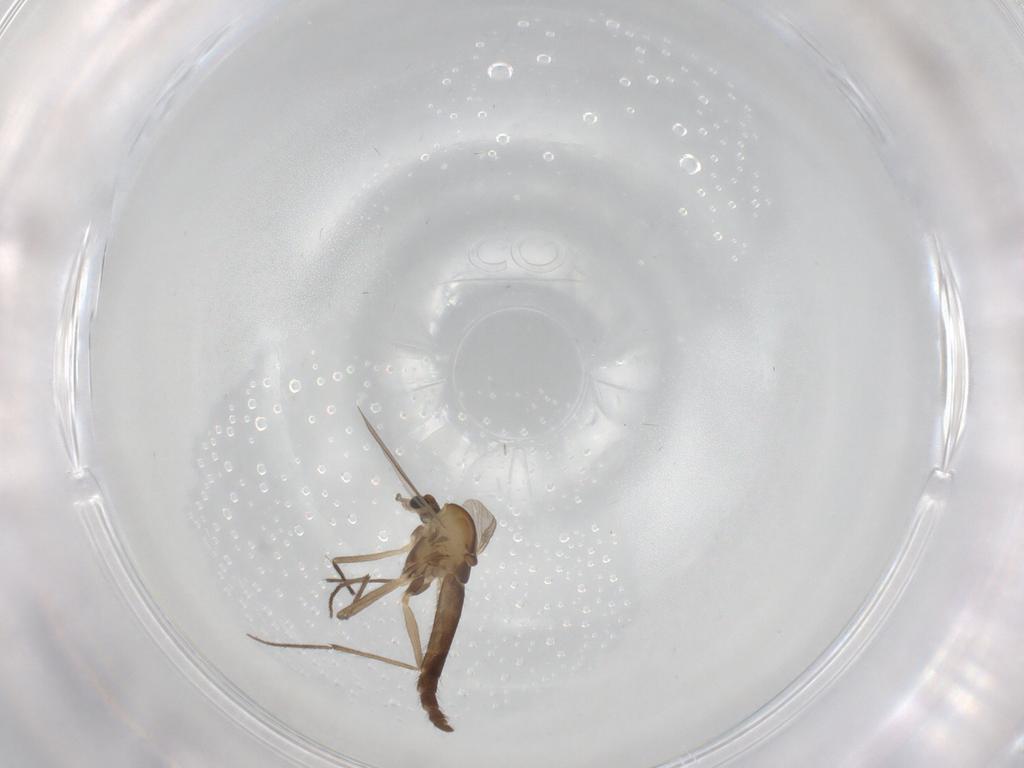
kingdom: Animalia
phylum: Arthropoda
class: Insecta
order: Diptera
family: Chironomidae
